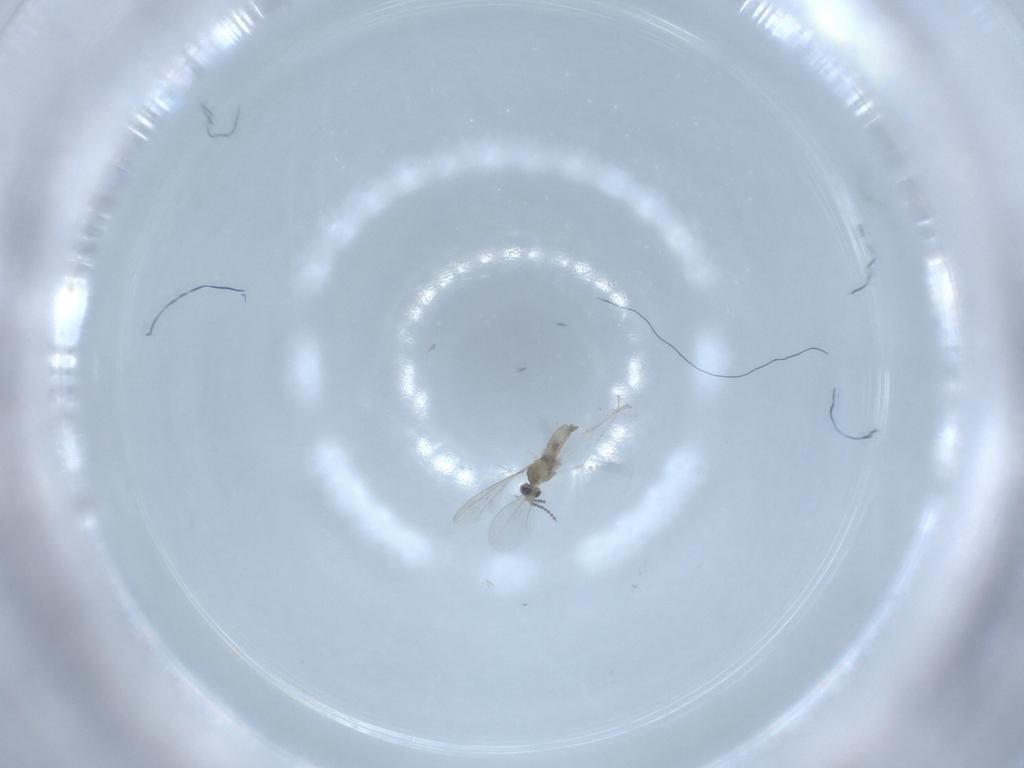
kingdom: Animalia
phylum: Arthropoda
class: Insecta
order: Diptera
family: Cecidomyiidae
